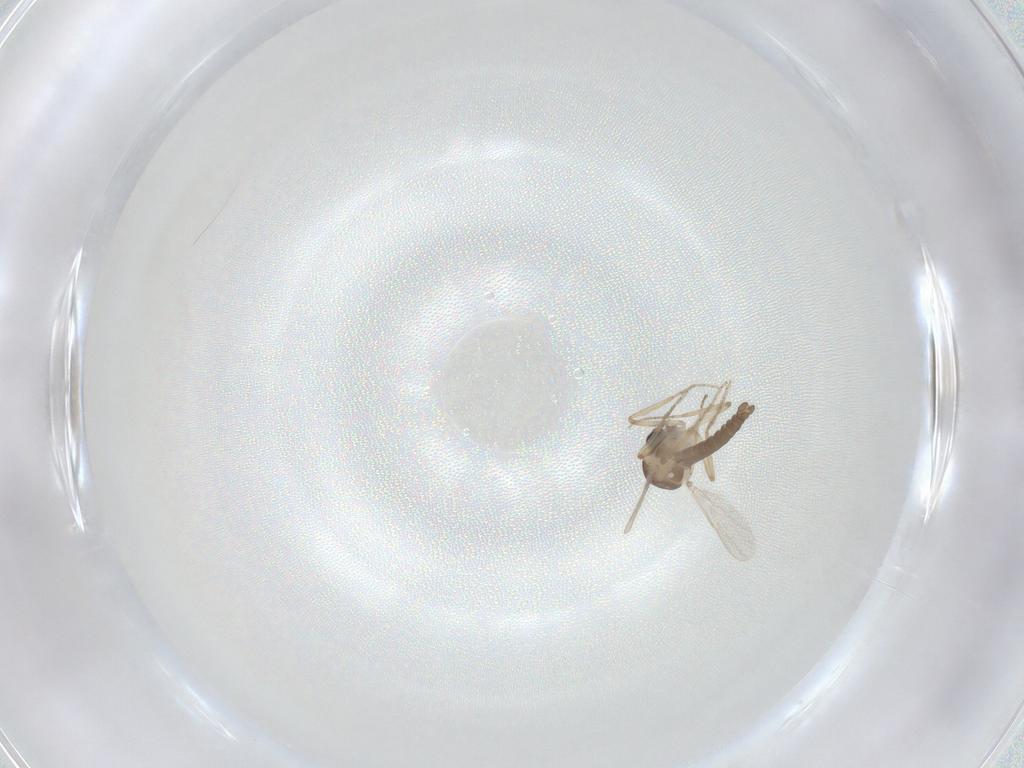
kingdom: Animalia
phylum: Arthropoda
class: Insecta
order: Diptera
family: Ceratopogonidae
